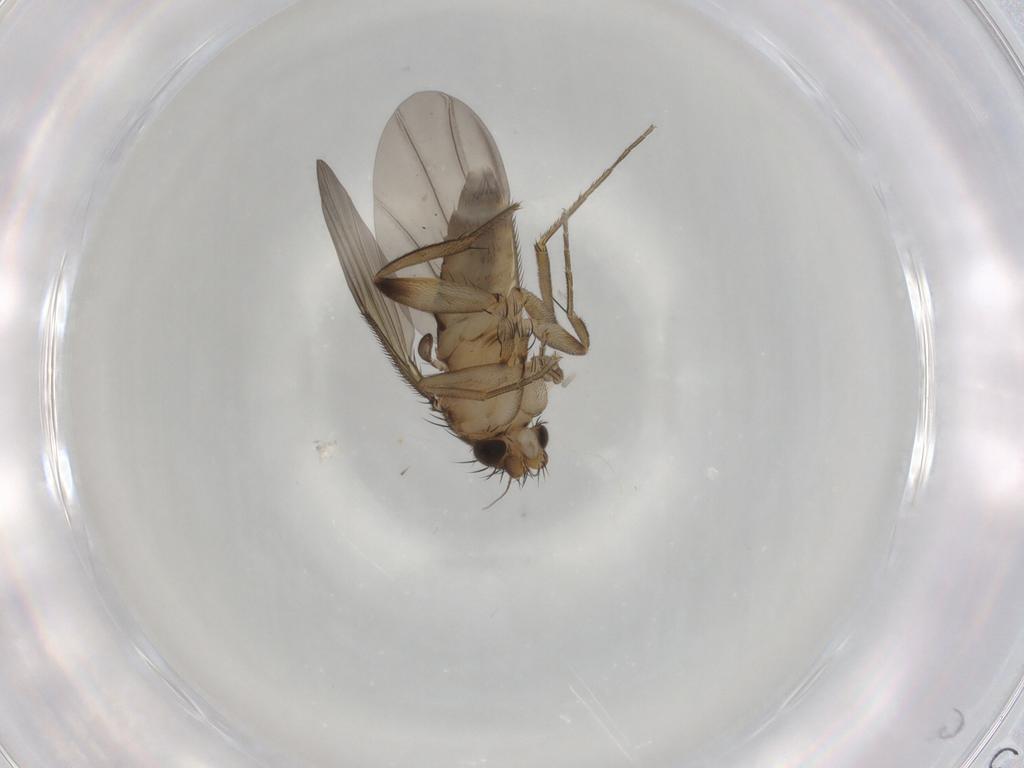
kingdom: Animalia
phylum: Arthropoda
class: Insecta
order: Diptera
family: Phoridae
